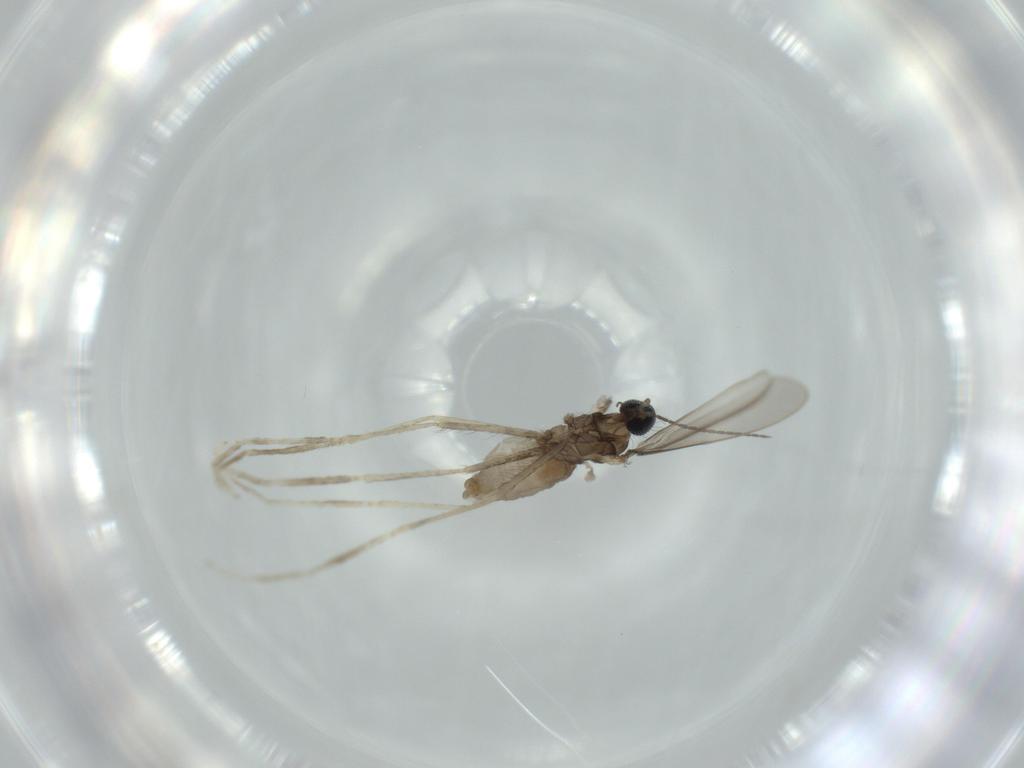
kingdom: Animalia
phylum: Arthropoda
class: Insecta
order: Diptera
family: Cecidomyiidae
